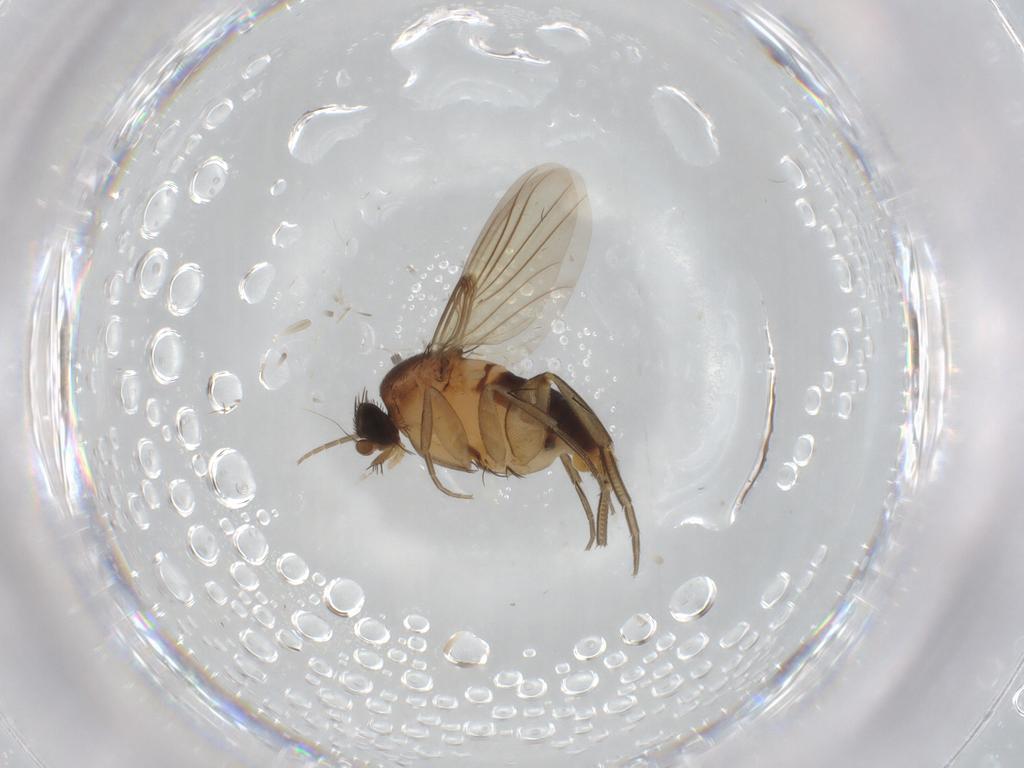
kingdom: Animalia
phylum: Arthropoda
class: Insecta
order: Diptera
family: Phoridae
